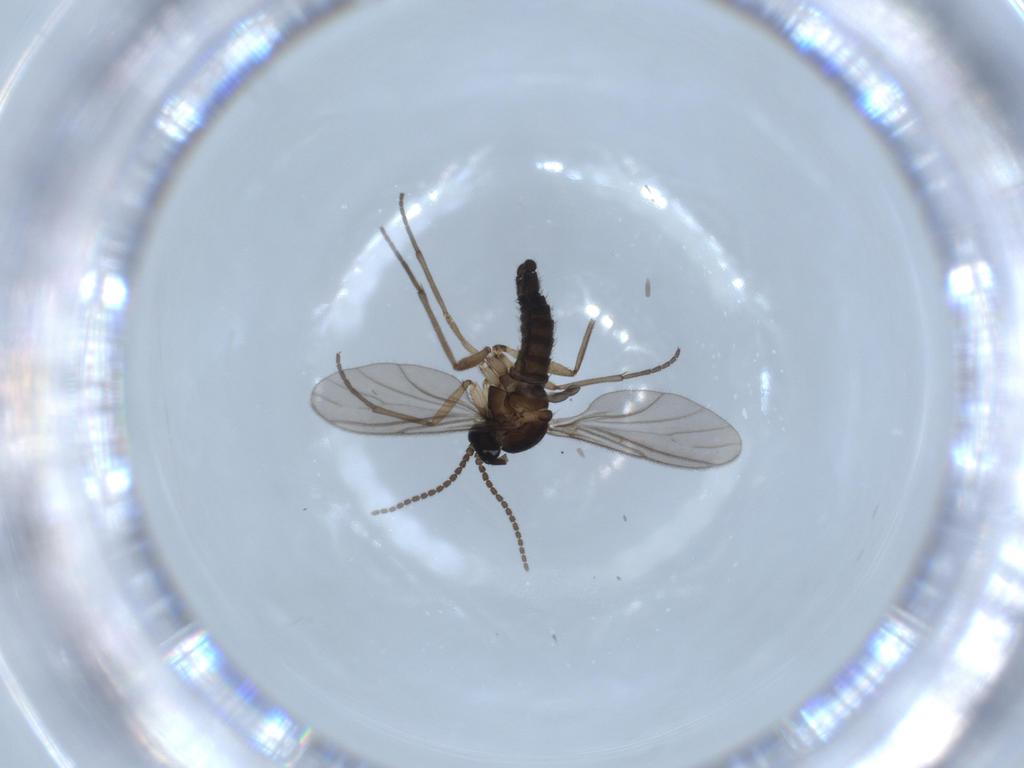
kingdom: Animalia
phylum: Arthropoda
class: Insecta
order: Diptera
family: Sciaridae
